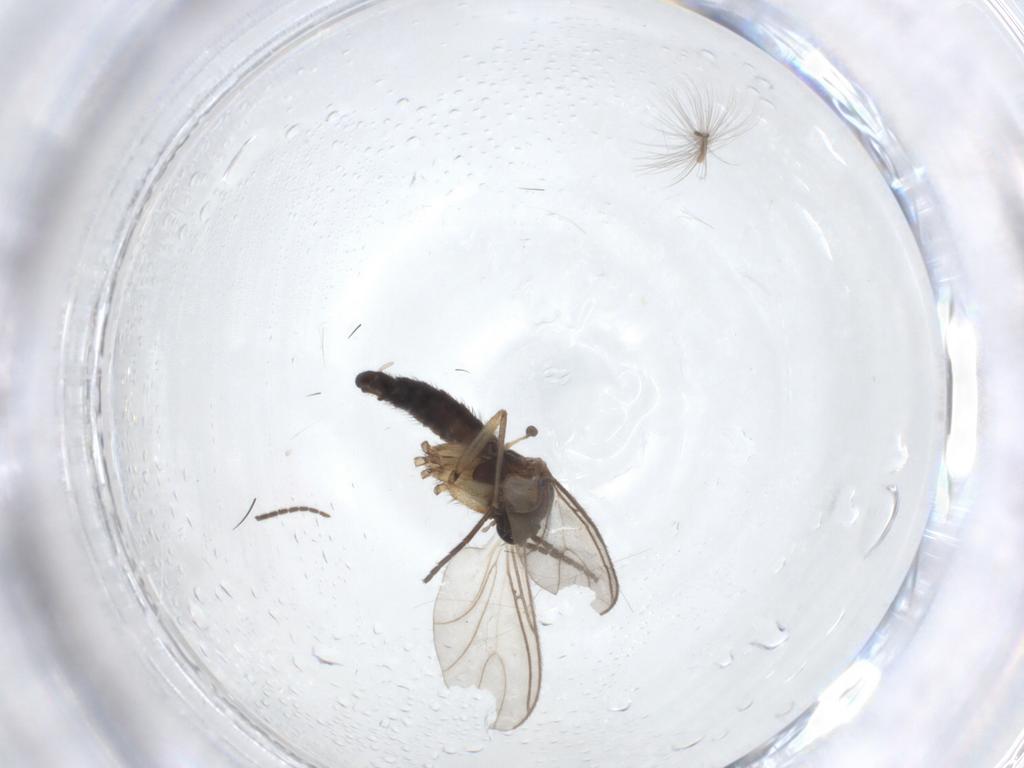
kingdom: Animalia
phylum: Arthropoda
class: Insecta
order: Diptera
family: Sciaridae
